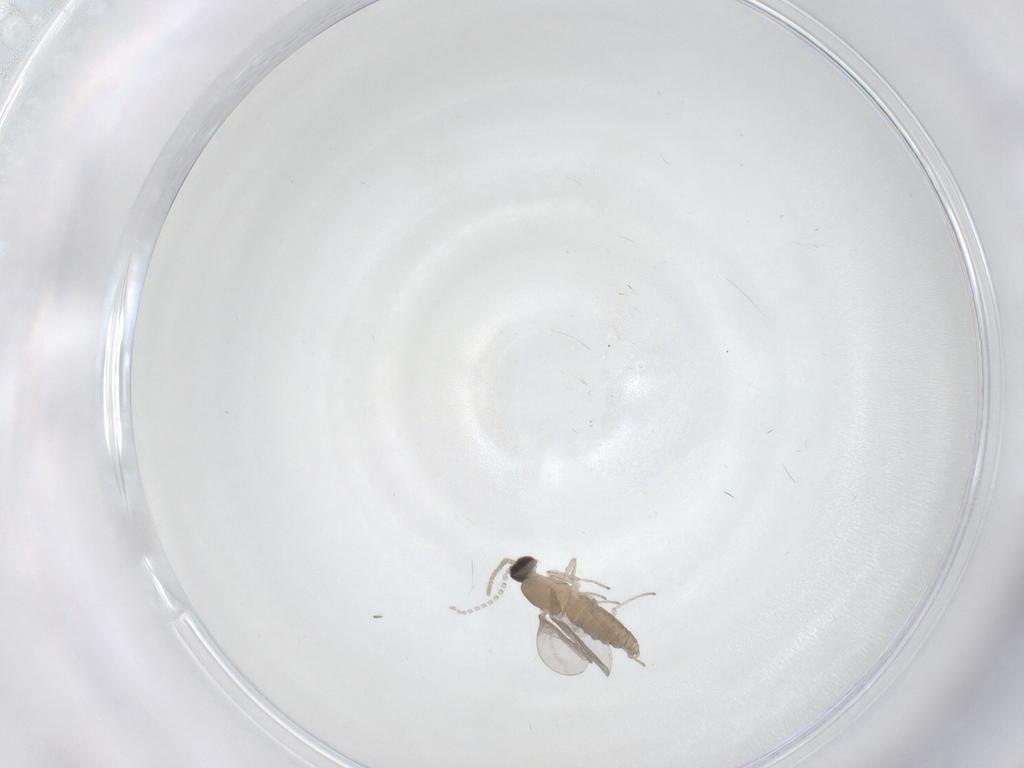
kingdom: Animalia
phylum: Arthropoda
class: Insecta
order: Diptera
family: Cecidomyiidae
